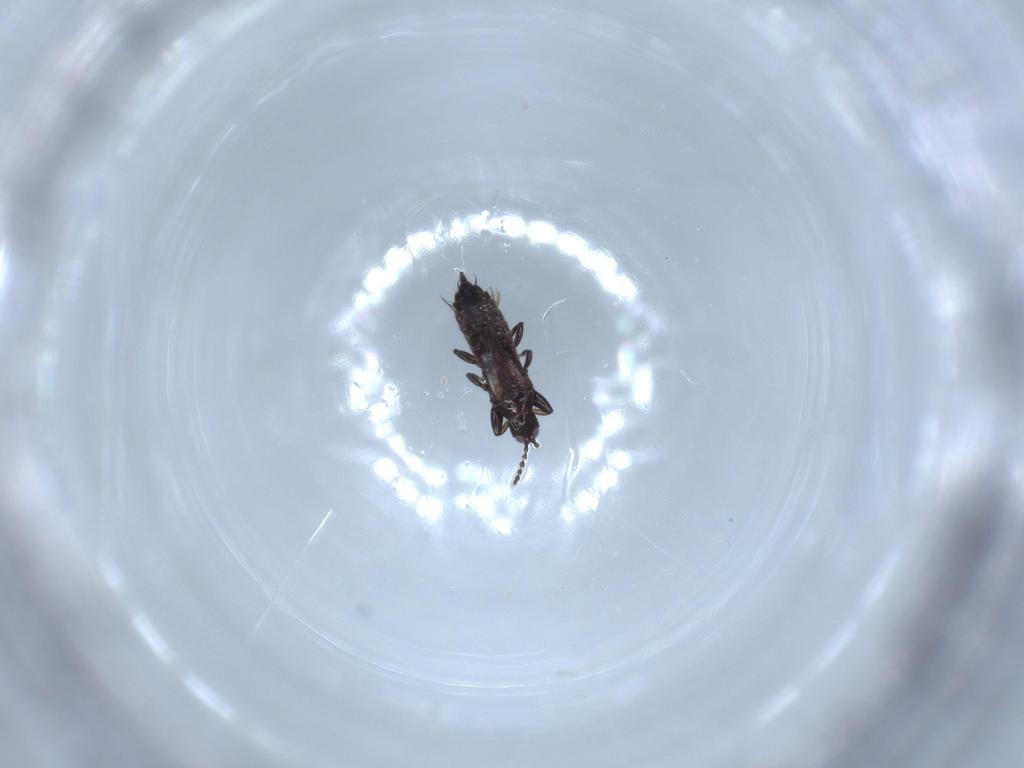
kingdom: Animalia
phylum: Arthropoda
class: Insecta
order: Thysanoptera
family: Phlaeothripidae
